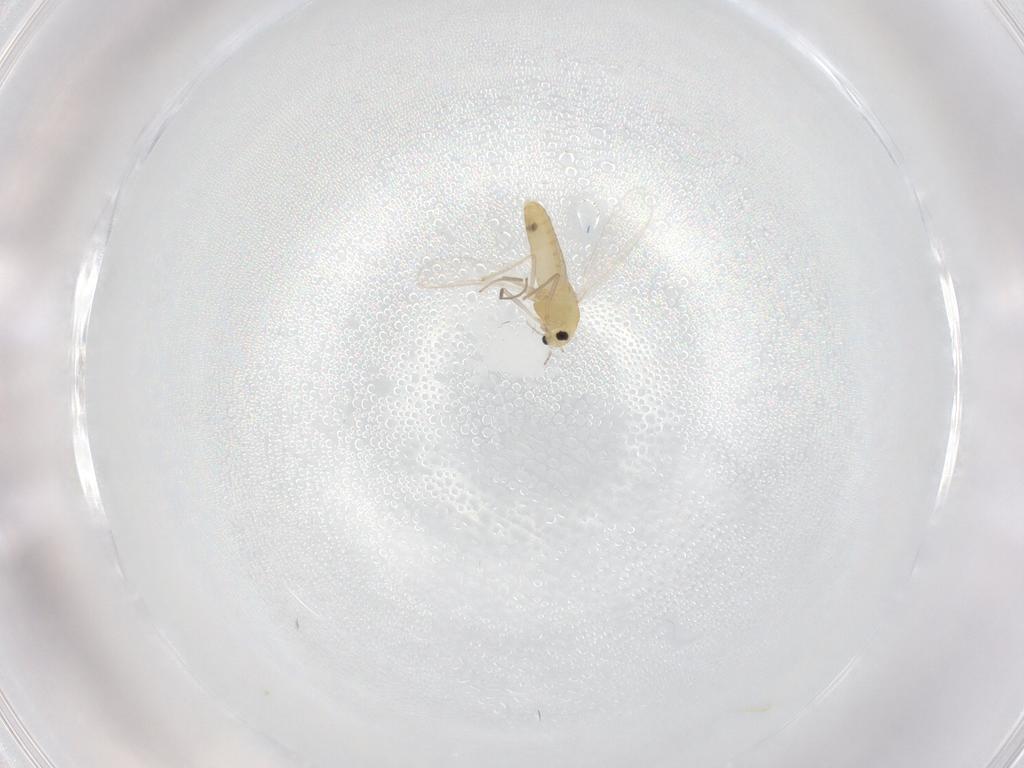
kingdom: Animalia
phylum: Arthropoda
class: Insecta
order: Diptera
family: Chironomidae
